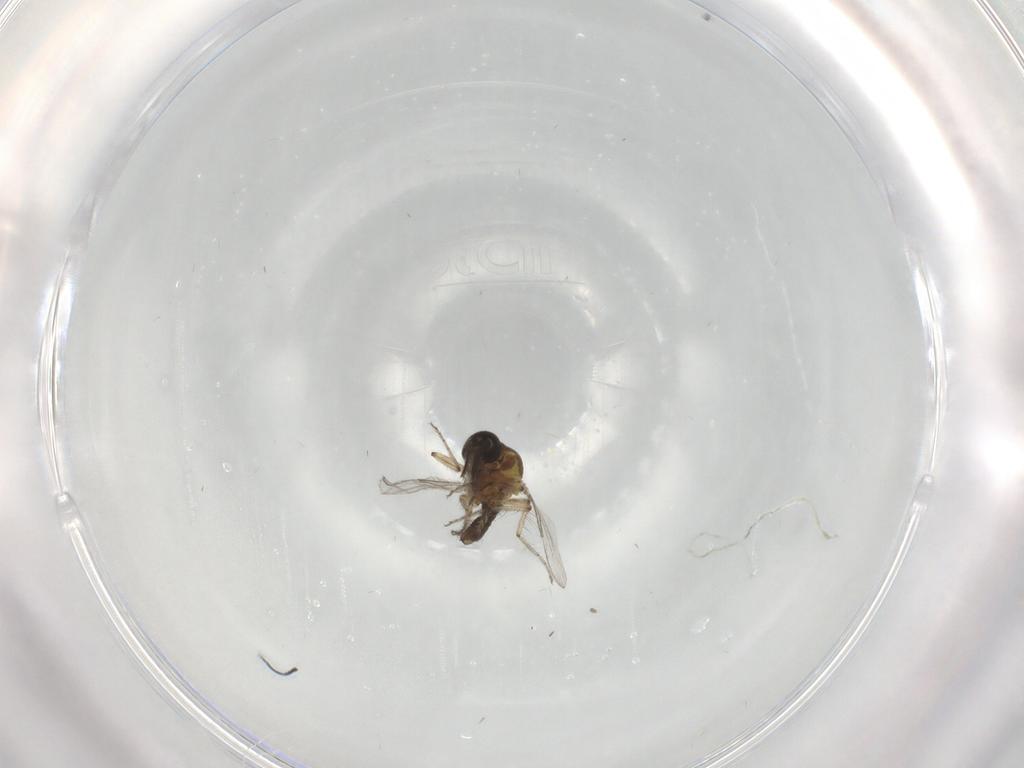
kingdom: Animalia
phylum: Arthropoda
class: Insecta
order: Diptera
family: Ceratopogonidae
